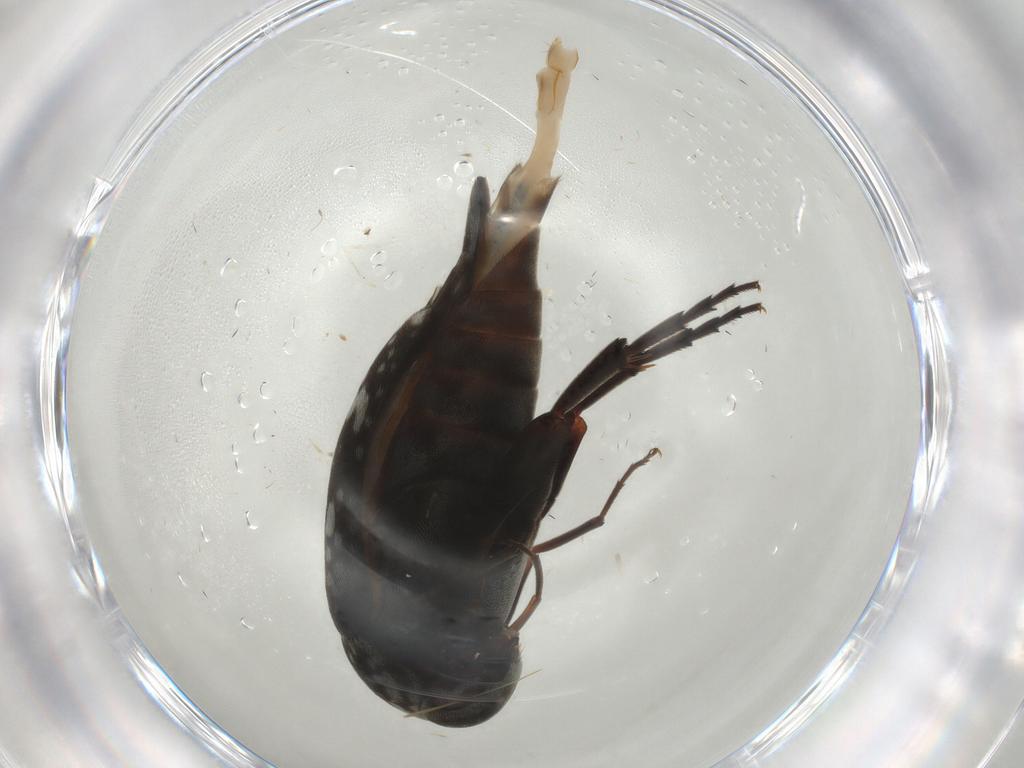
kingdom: Animalia
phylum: Arthropoda
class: Insecta
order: Coleoptera
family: Mordellidae
